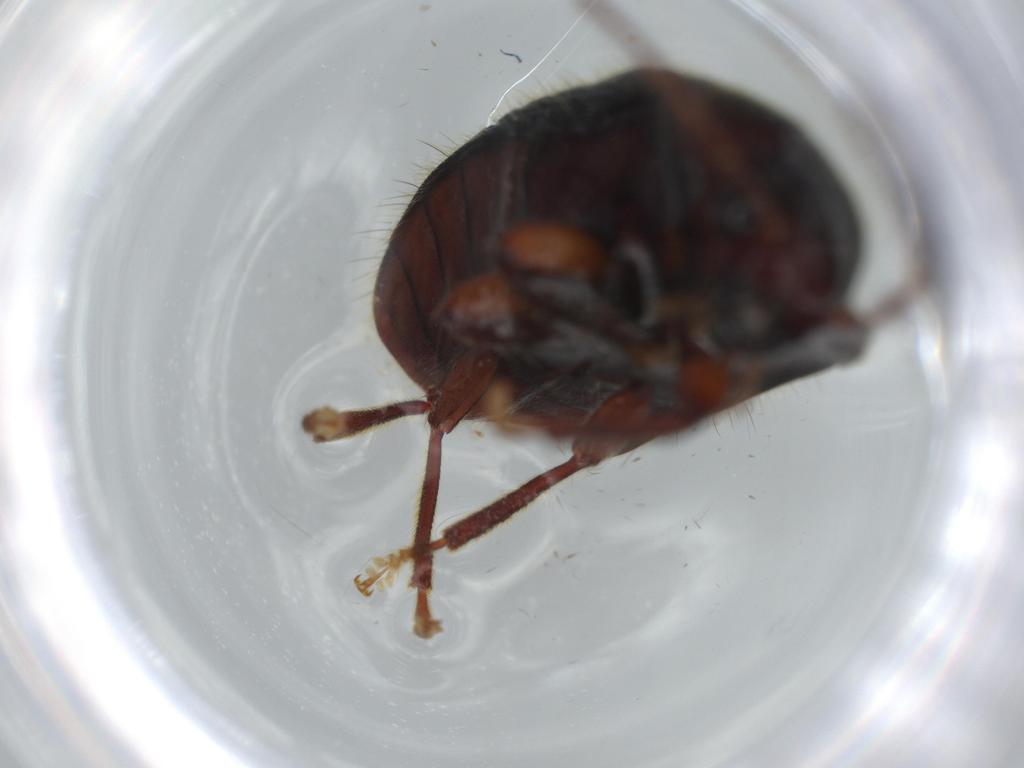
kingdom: Animalia
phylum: Arthropoda
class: Insecta
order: Coleoptera
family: Artematopodidae
